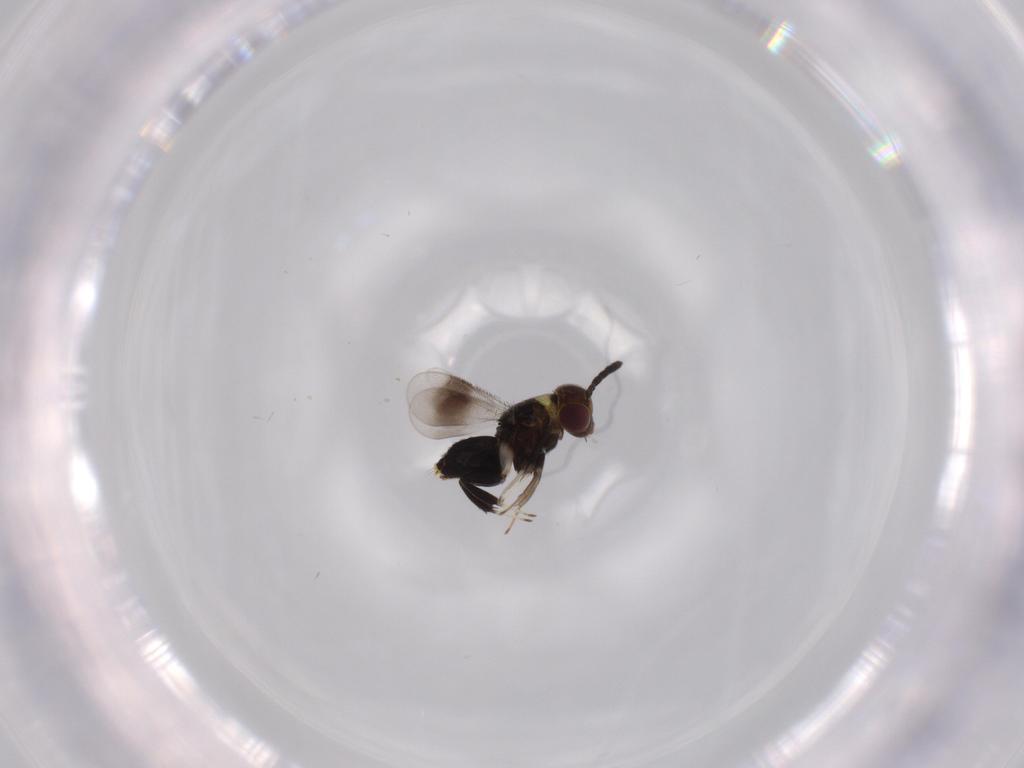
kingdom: Animalia
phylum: Arthropoda
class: Insecta
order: Hymenoptera
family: Aphelinidae
